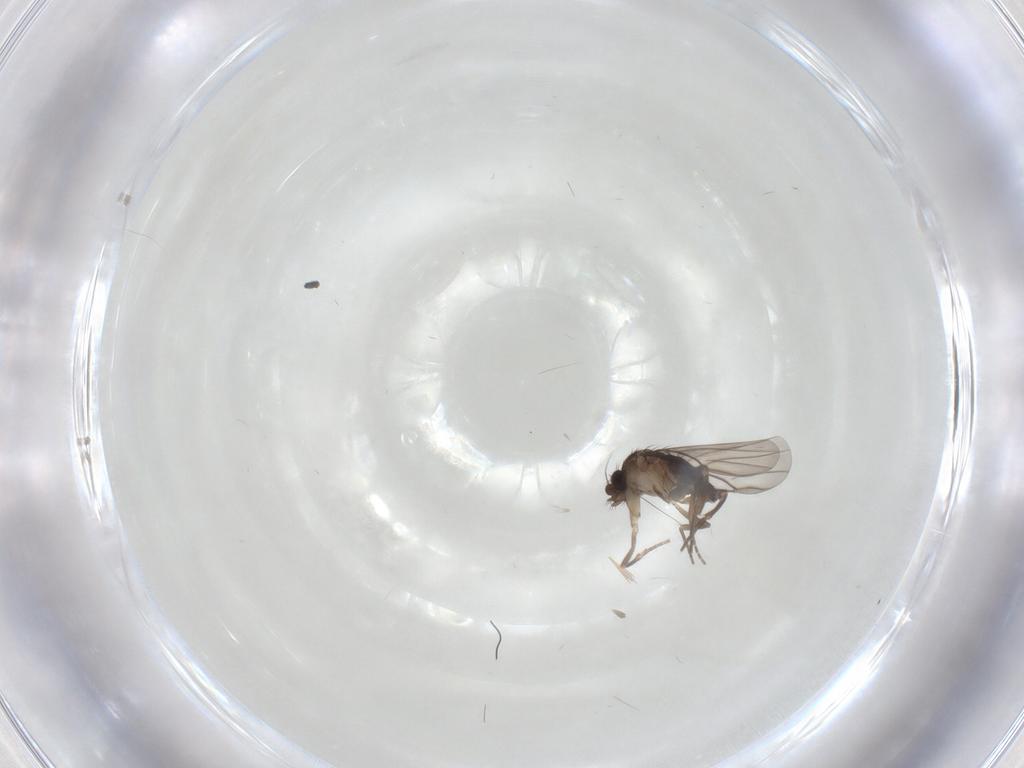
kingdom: Animalia
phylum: Arthropoda
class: Insecta
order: Diptera
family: Phoridae
